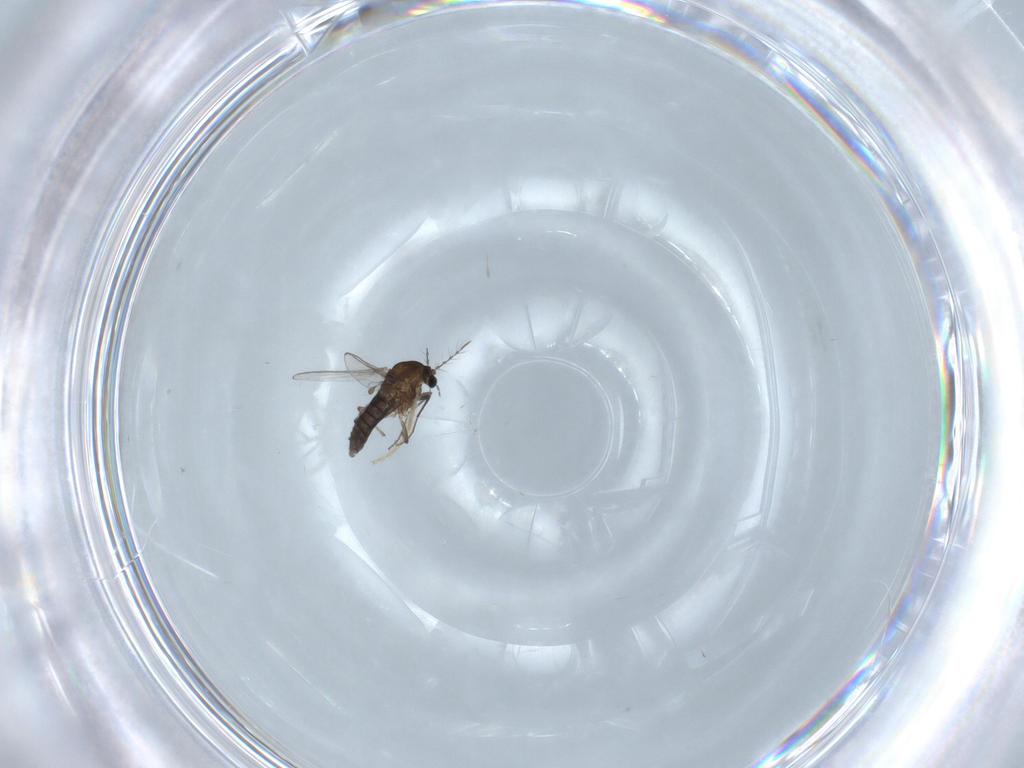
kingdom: Animalia
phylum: Arthropoda
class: Insecta
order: Diptera
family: Chironomidae
